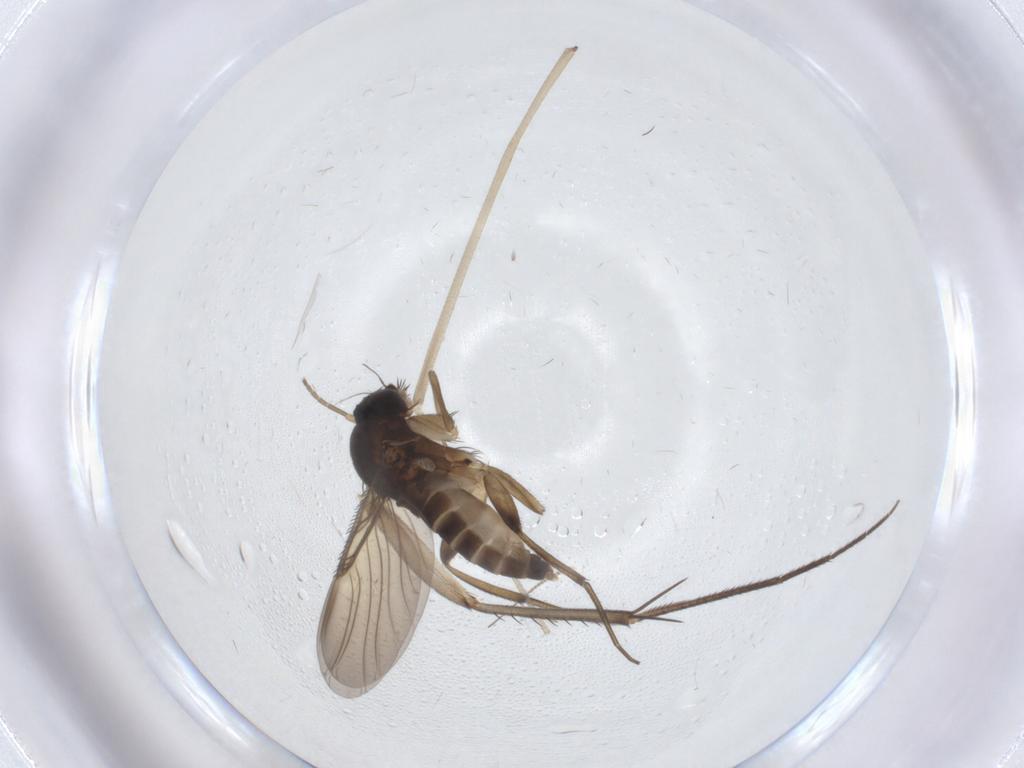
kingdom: Animalia
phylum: Arthropoda
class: Insecta
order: Diptera
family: Phoridae
